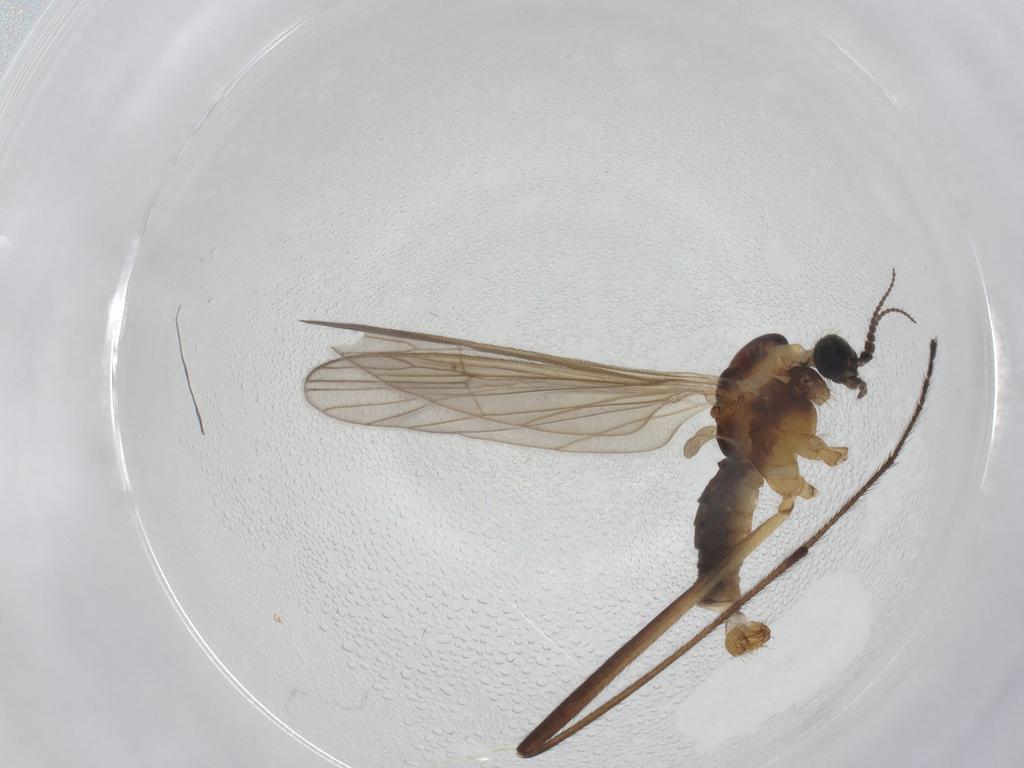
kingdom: Animalia
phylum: Arthropoda
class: Insecta
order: Diptera
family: Agromyzidae
